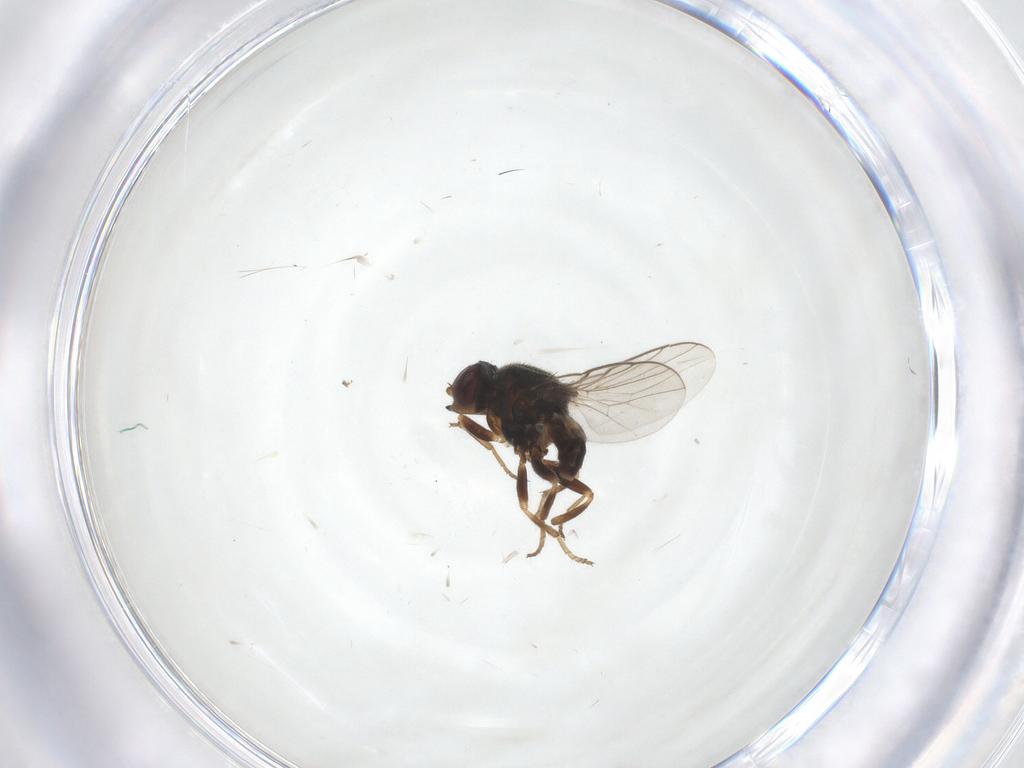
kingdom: Animalia
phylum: Arthropoda
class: Insecta
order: Diptera
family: Chloropidae
